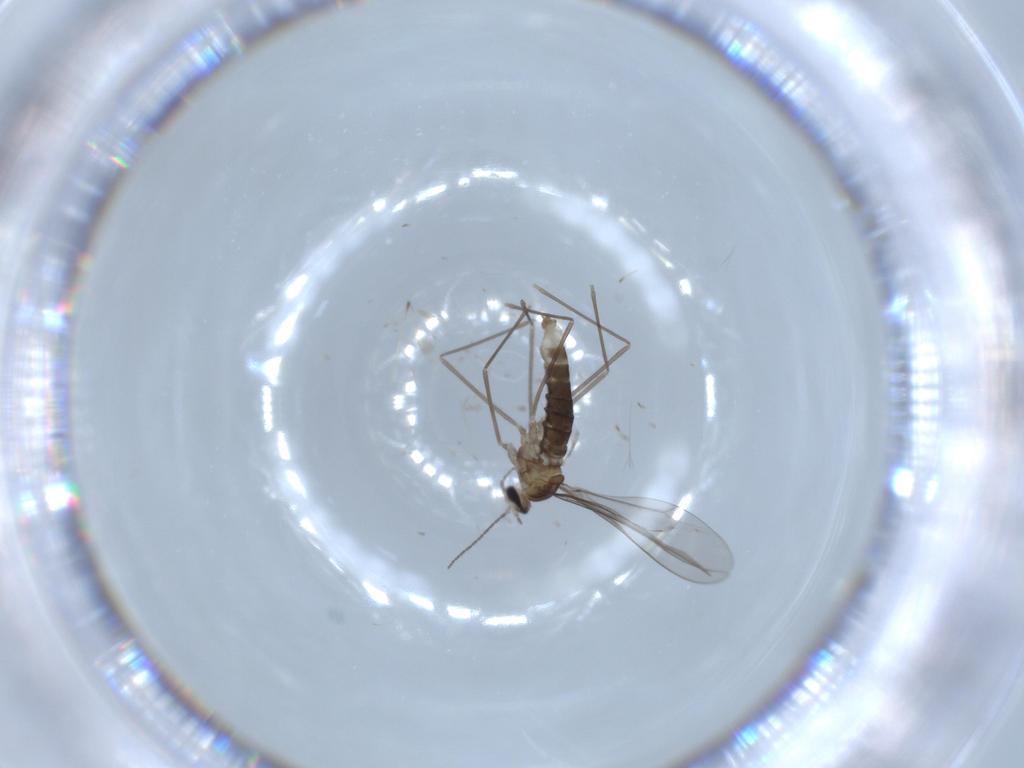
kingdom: Animalia
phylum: Arthropoda
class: Insecta
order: Diptera
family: Cecidomyiidae
